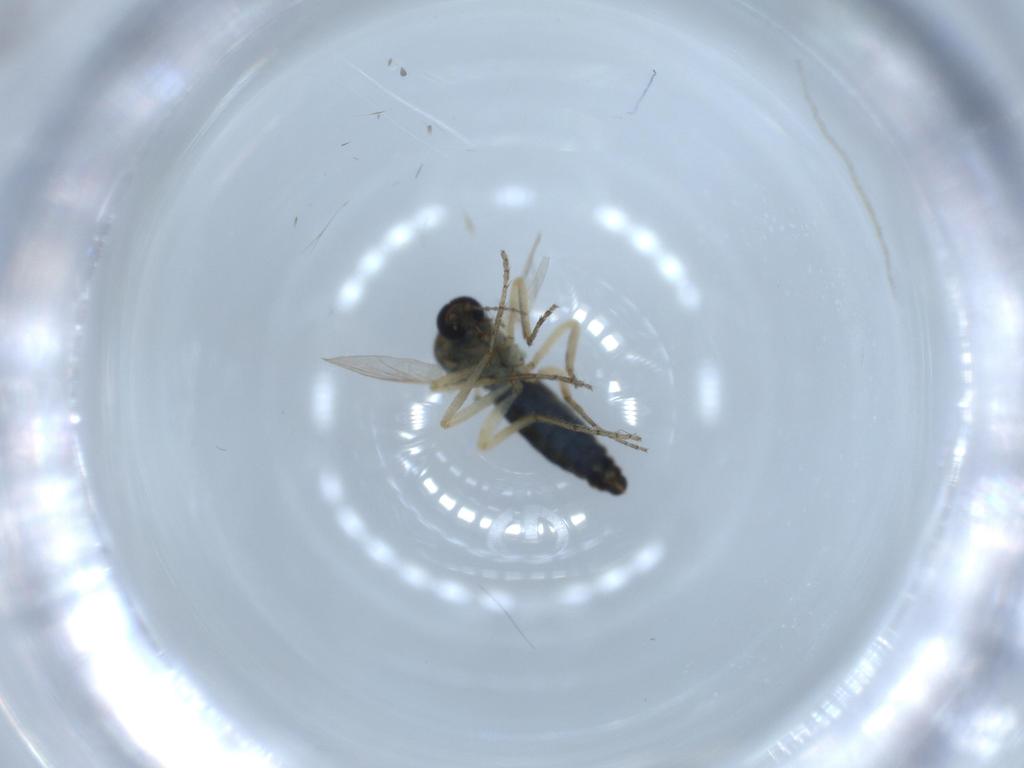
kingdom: Animalia
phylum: Arthropoda
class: Insecta
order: Diptera
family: Ceratopogonidae
